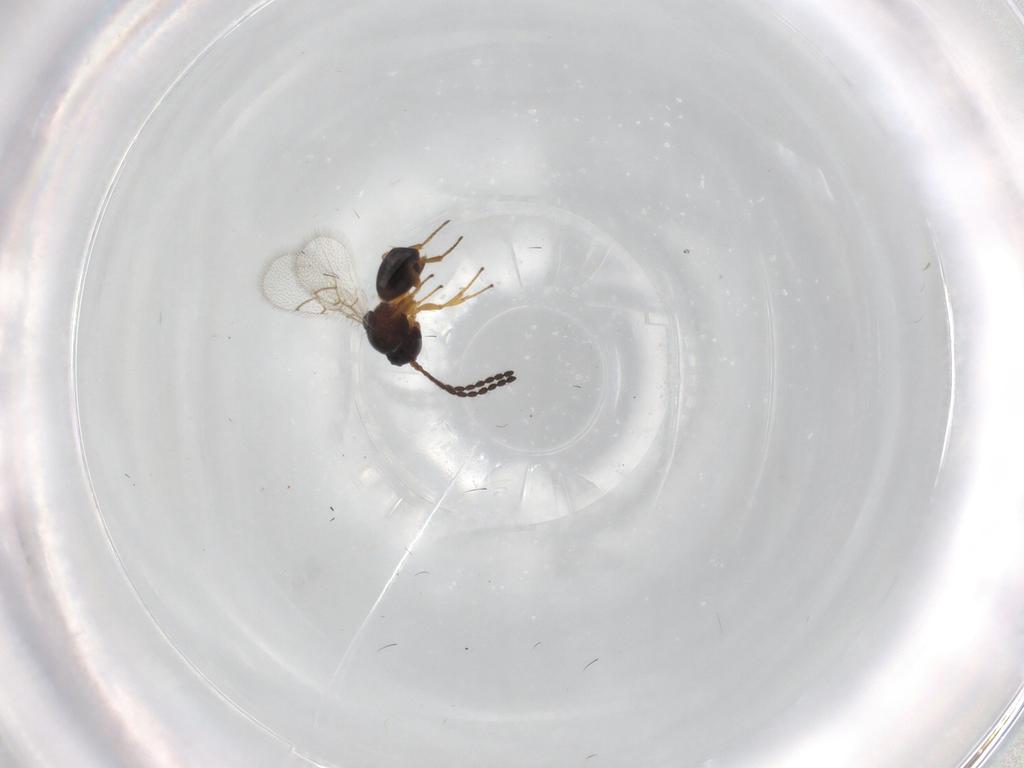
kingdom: Animalia
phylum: Arthropoda
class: Insecta
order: Hymenoptera
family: Figitidae
